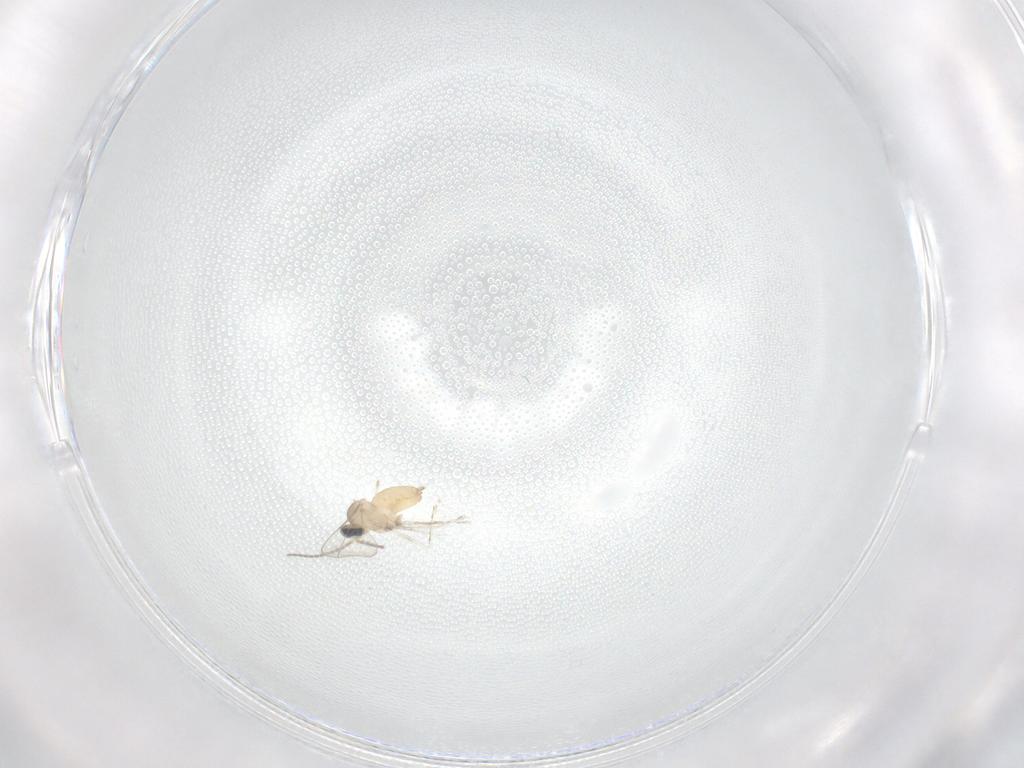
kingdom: Animalia
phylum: Arthropoda
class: Insecta
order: Diptera
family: Cecidomyiidae
